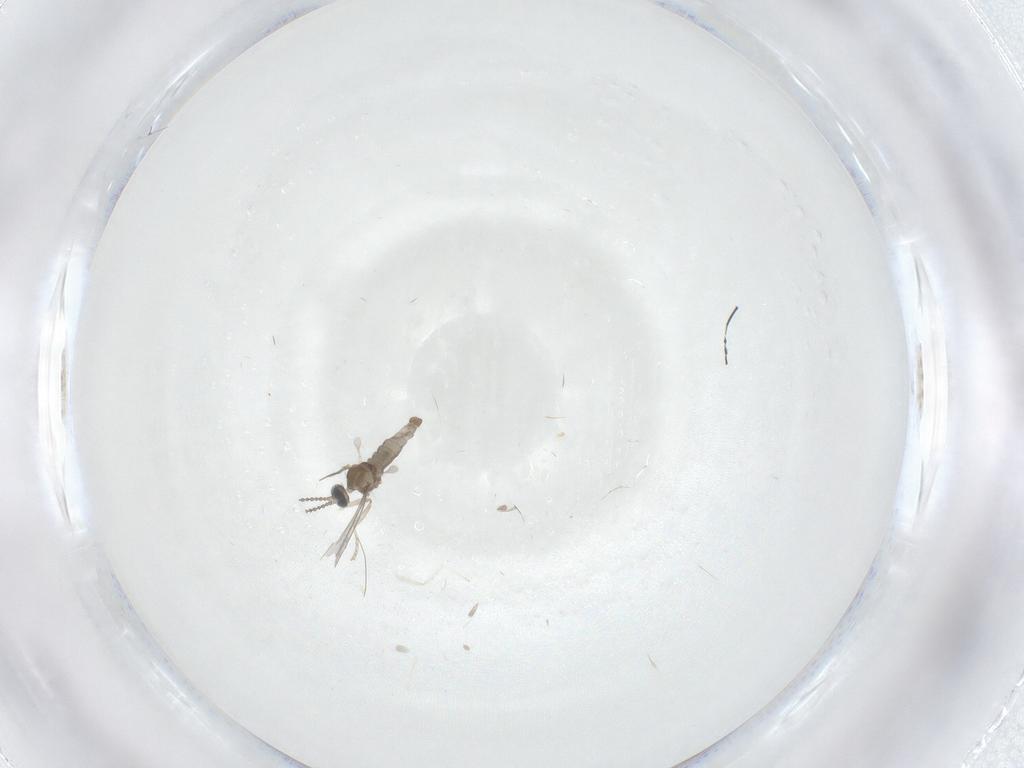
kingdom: Animalia
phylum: Arthropoda
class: Insecta
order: Diptera
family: Cecidomyiidae
